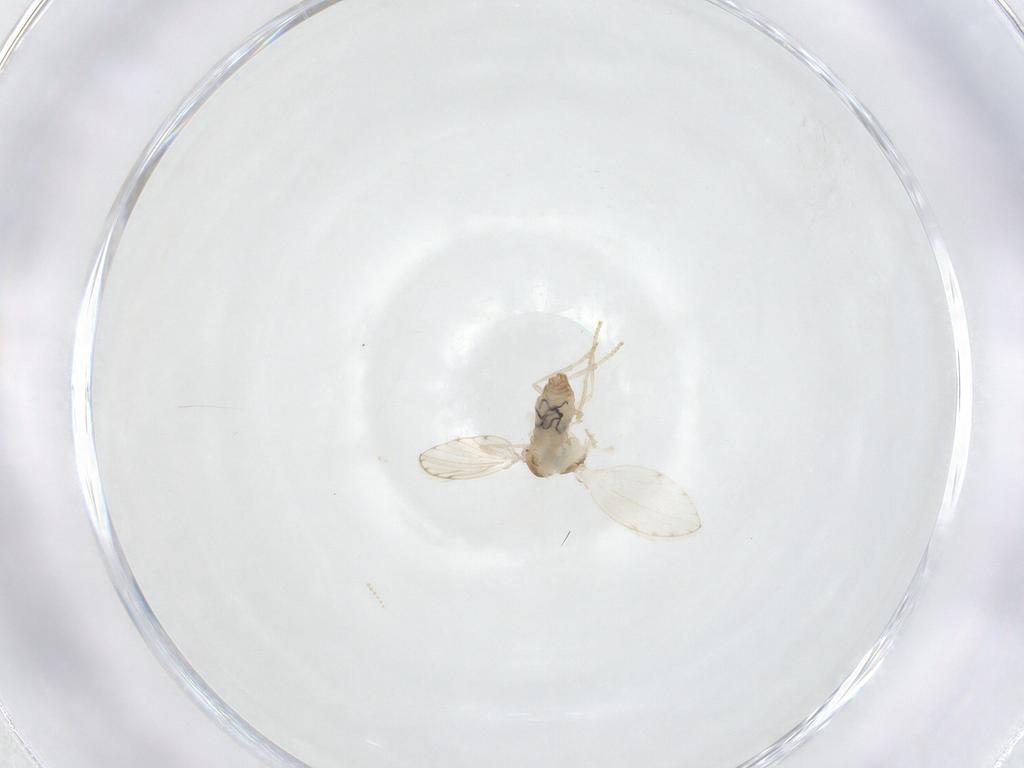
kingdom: Animalia
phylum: Arthropoda
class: Insecta
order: Diptera
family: Psychodidae
